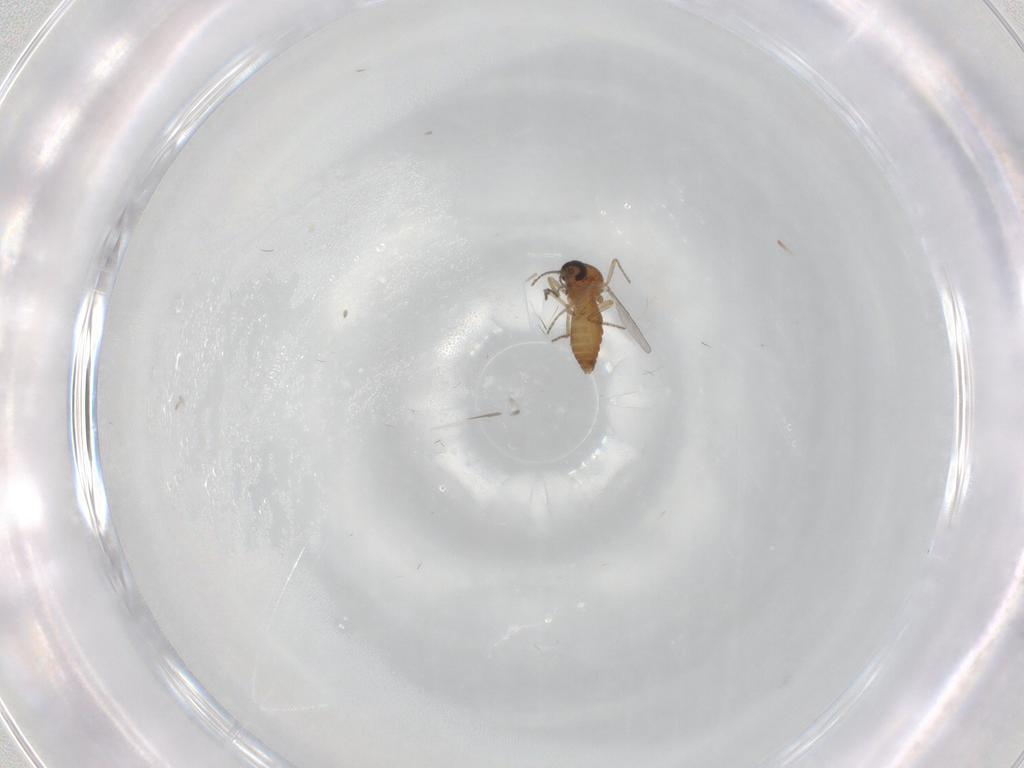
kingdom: Animalia
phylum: Arthropoda
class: Insecta
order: Diptera
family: Ceratopogonidae
